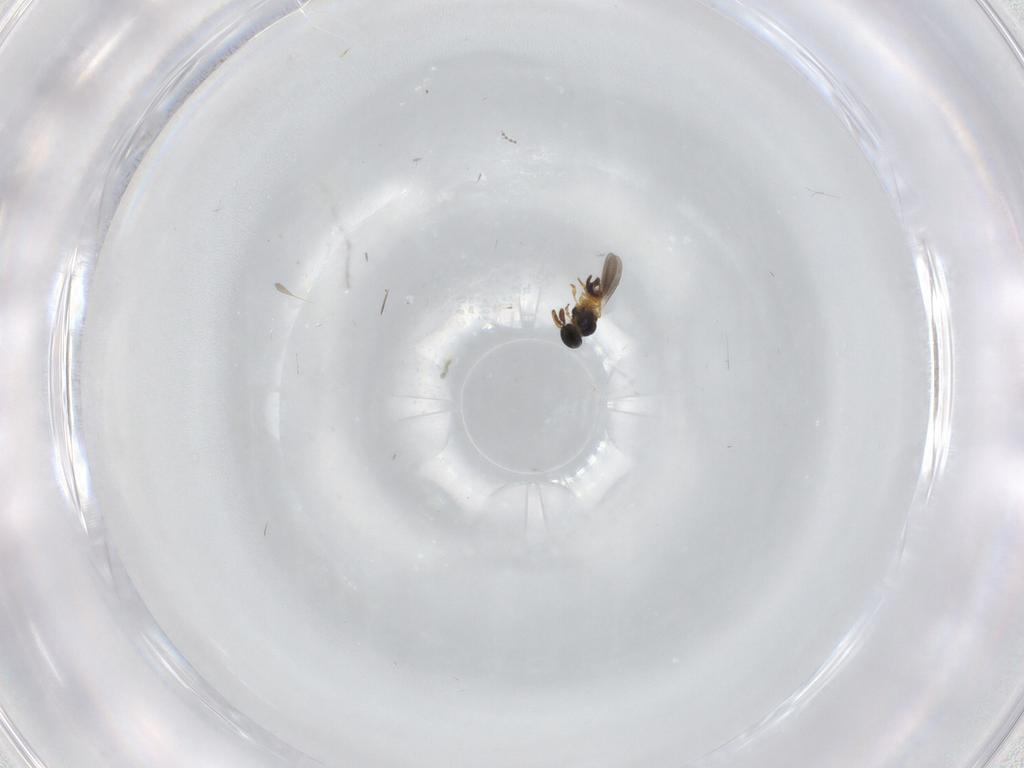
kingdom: Animalia
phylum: Arthropoda
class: Insecta
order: Hymenoptera
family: Platygastridae
